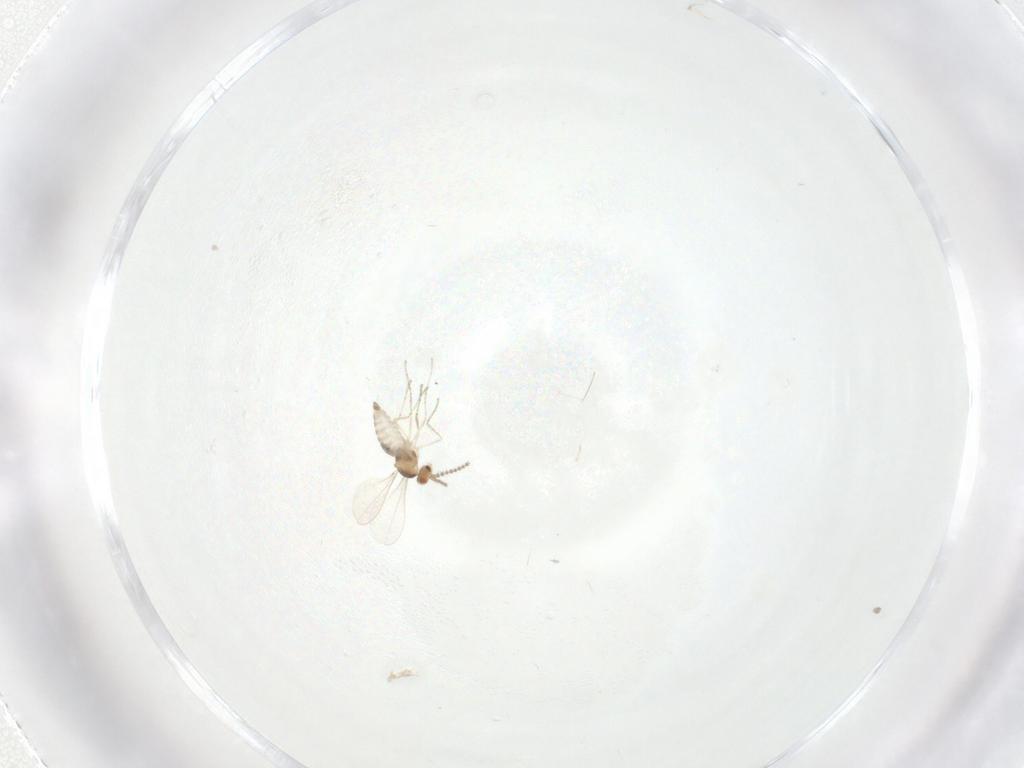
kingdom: Animalia
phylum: Arthropoda
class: Insecta
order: Diptera
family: Cecidomyiidae
